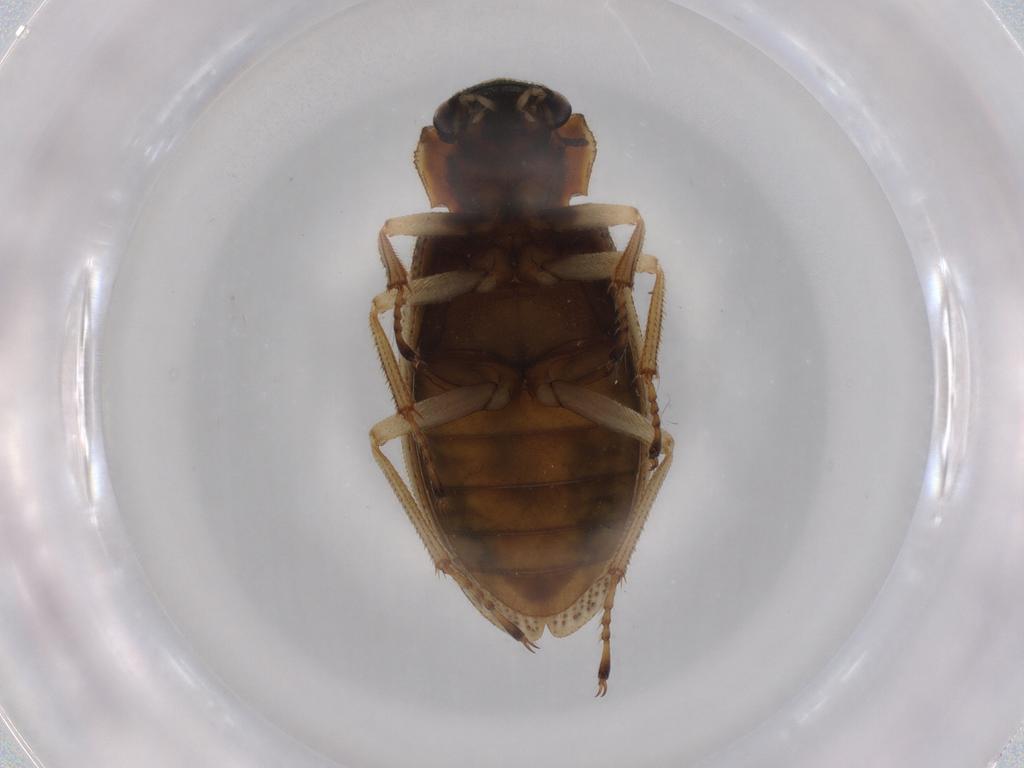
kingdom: Animalia
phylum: Arthropoda
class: Insecta
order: Coleoptera
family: Helophoridae
